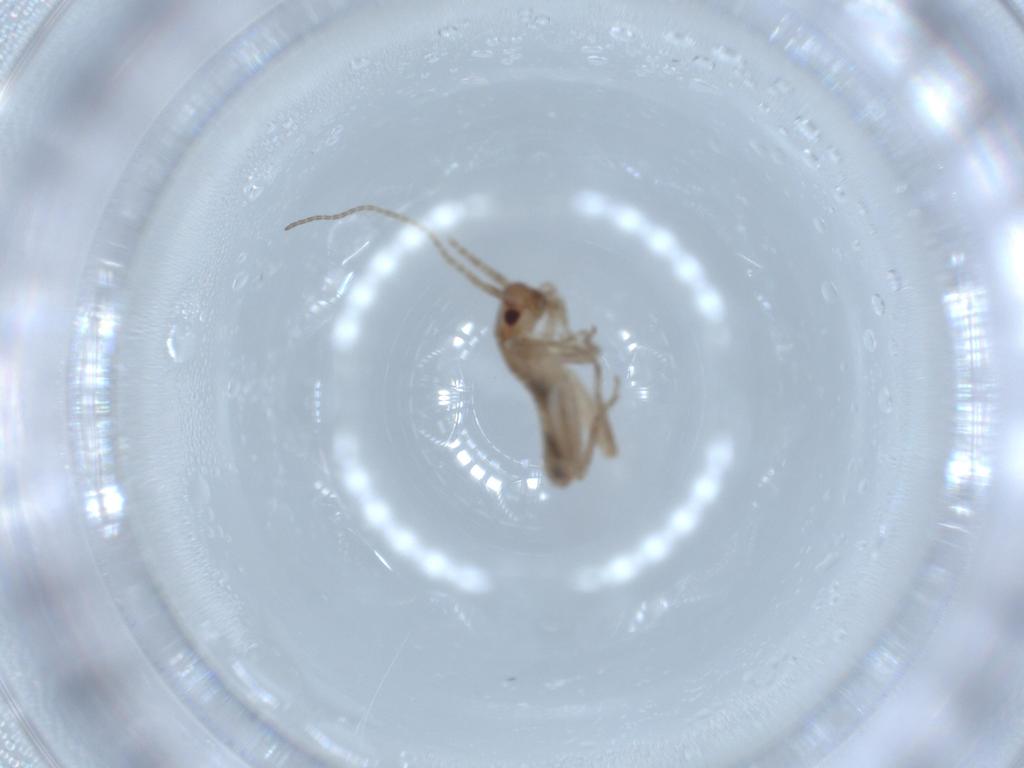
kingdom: Animalia
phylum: Arthropoda
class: Insecta
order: Orthoptera
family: Mogoplistidae
